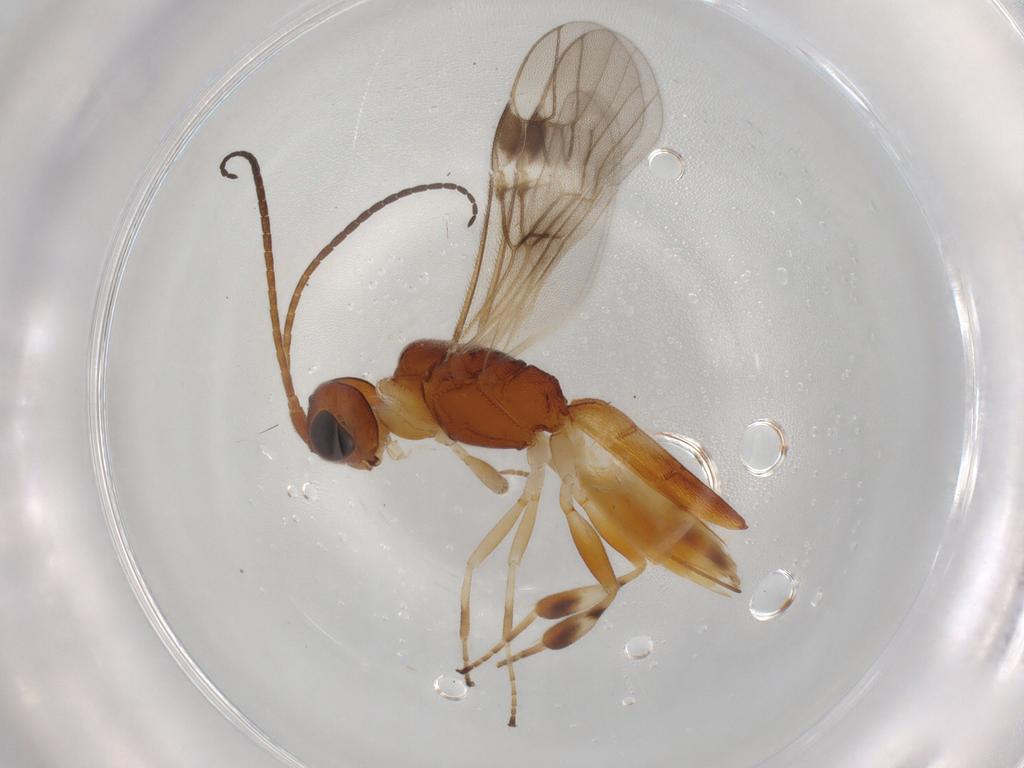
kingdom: Animalia
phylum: Arthropoda
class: Insecta
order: Hymenoptera
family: Braconidae
